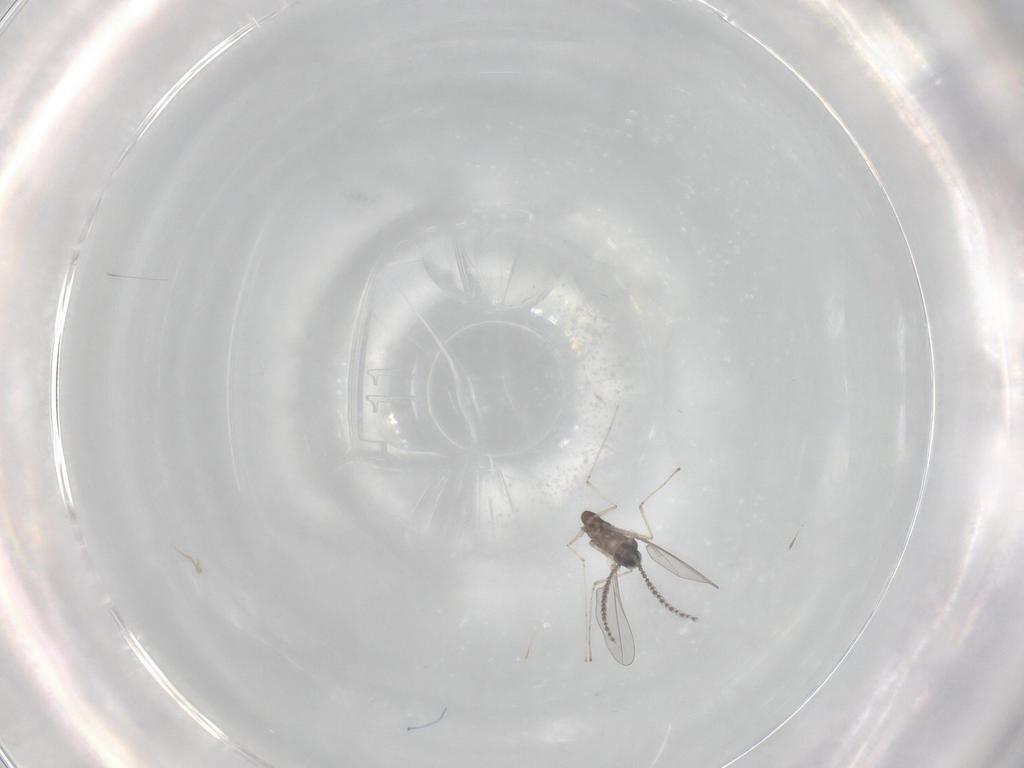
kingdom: Animalia
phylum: Arthropoda
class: Insecta
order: Diptera
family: Cecidomyiidae
